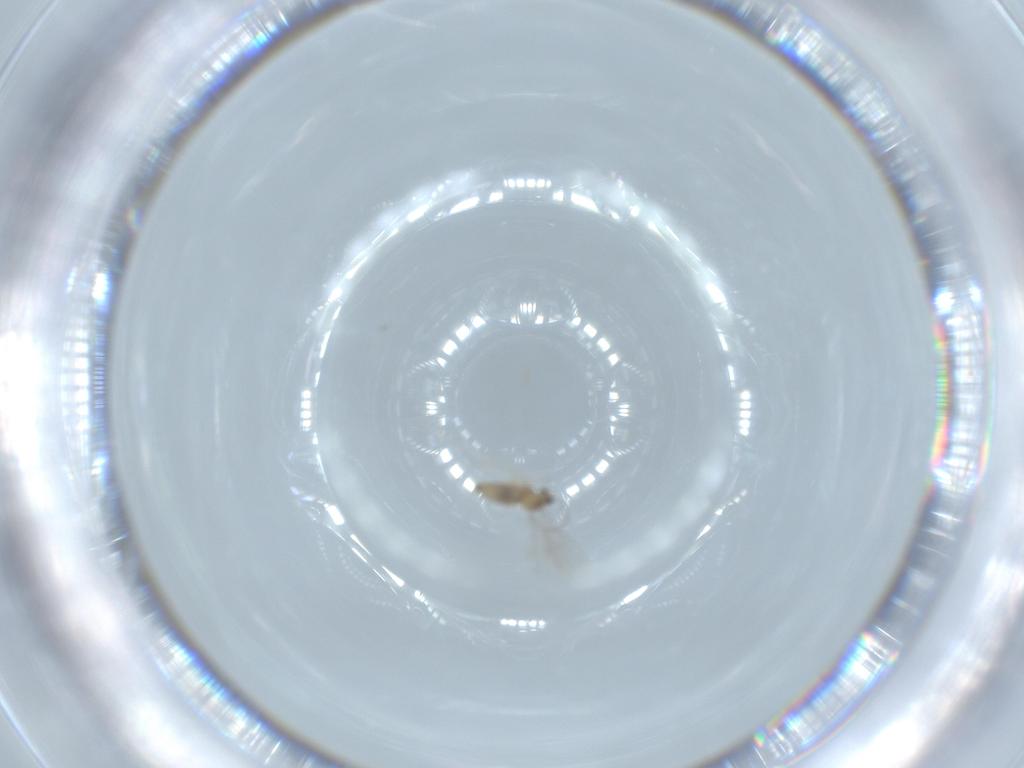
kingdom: Animalia
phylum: Arthropoda
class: Insecta
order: Diptera
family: Cecidomyiidae
